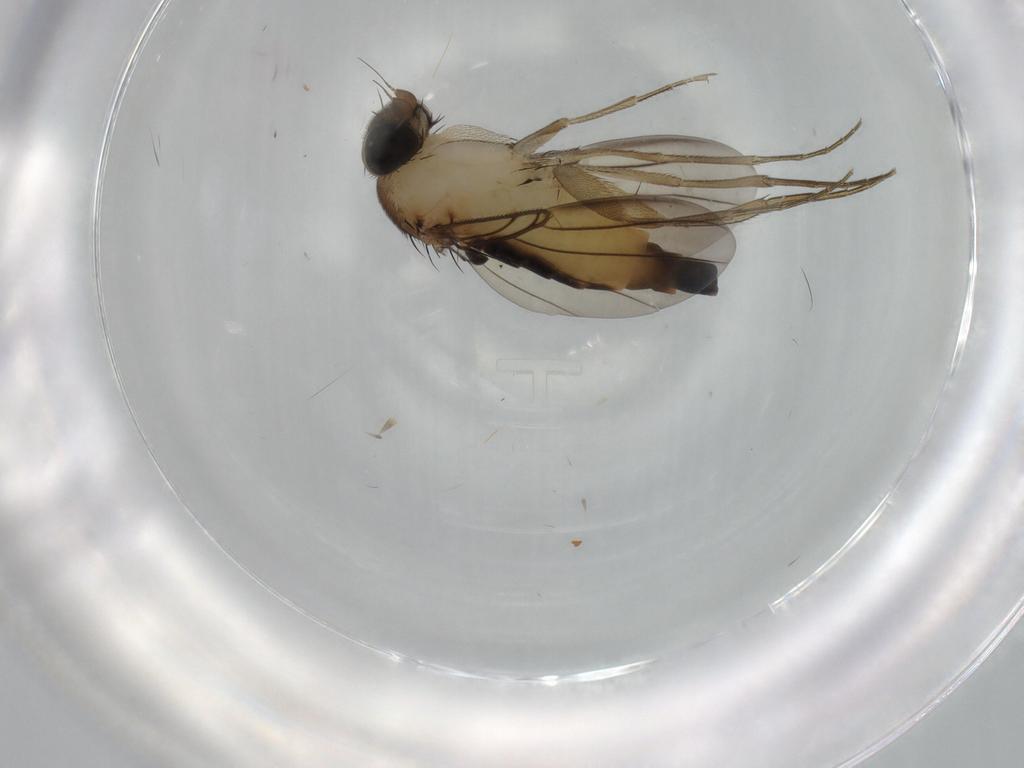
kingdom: Animalia
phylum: Arthropoda
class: Insecta
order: Diptera
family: Phoridae
